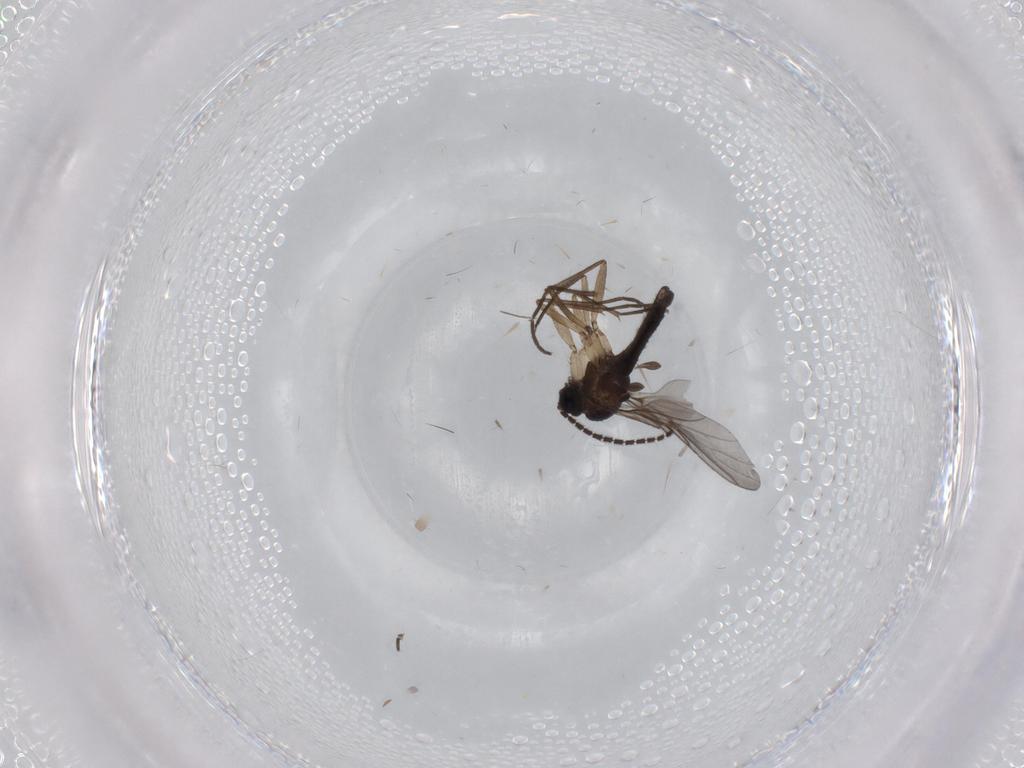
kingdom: Animalia
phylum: Arthropoda
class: Insecta
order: Diptera
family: Sciaridae
